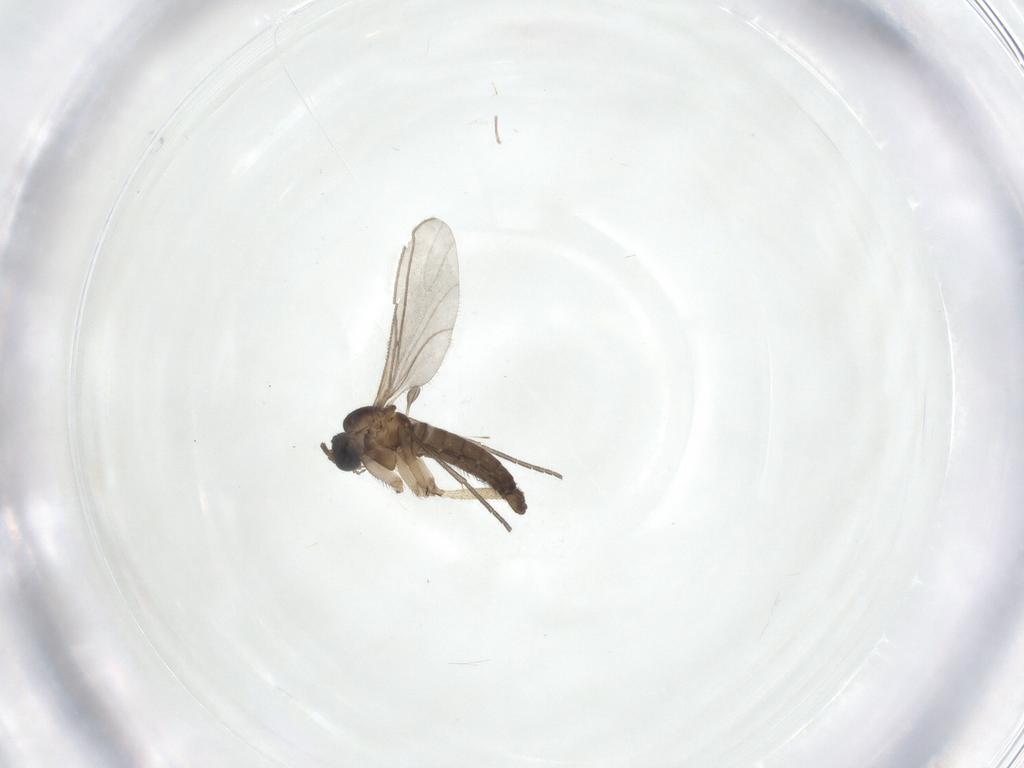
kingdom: Animalia
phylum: Arthropoda
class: Insecta
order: Diptera
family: Sciaridae
